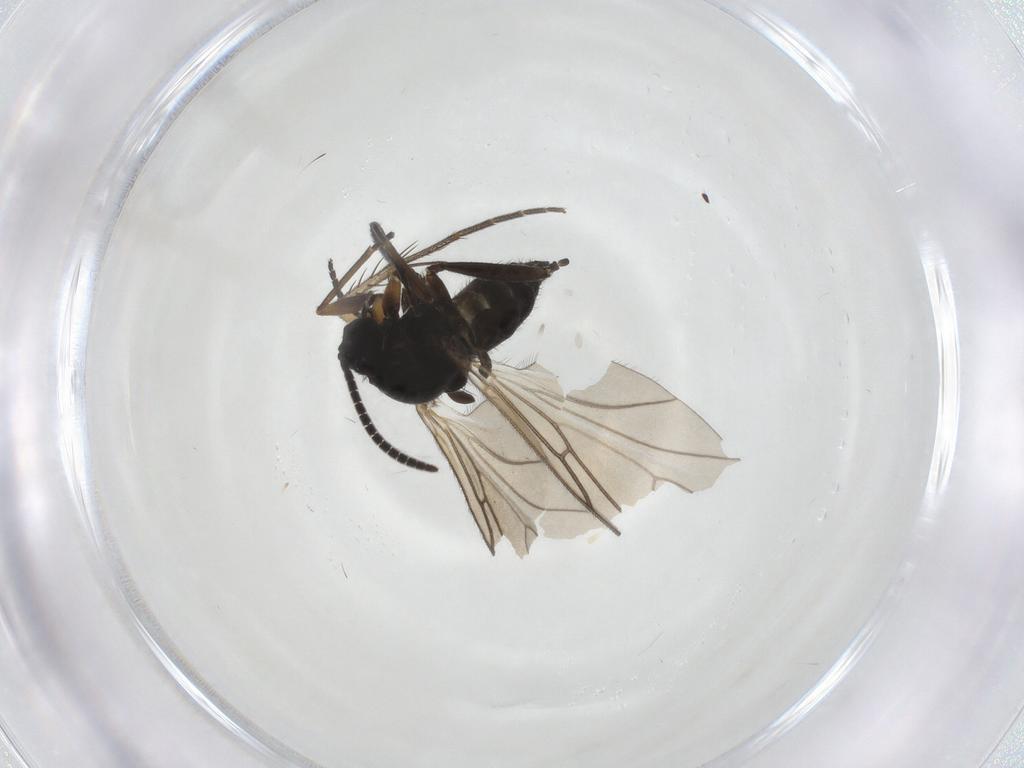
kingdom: Animalia
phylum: Arthropoda
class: Insecta
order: Diptera
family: Sciaridae
